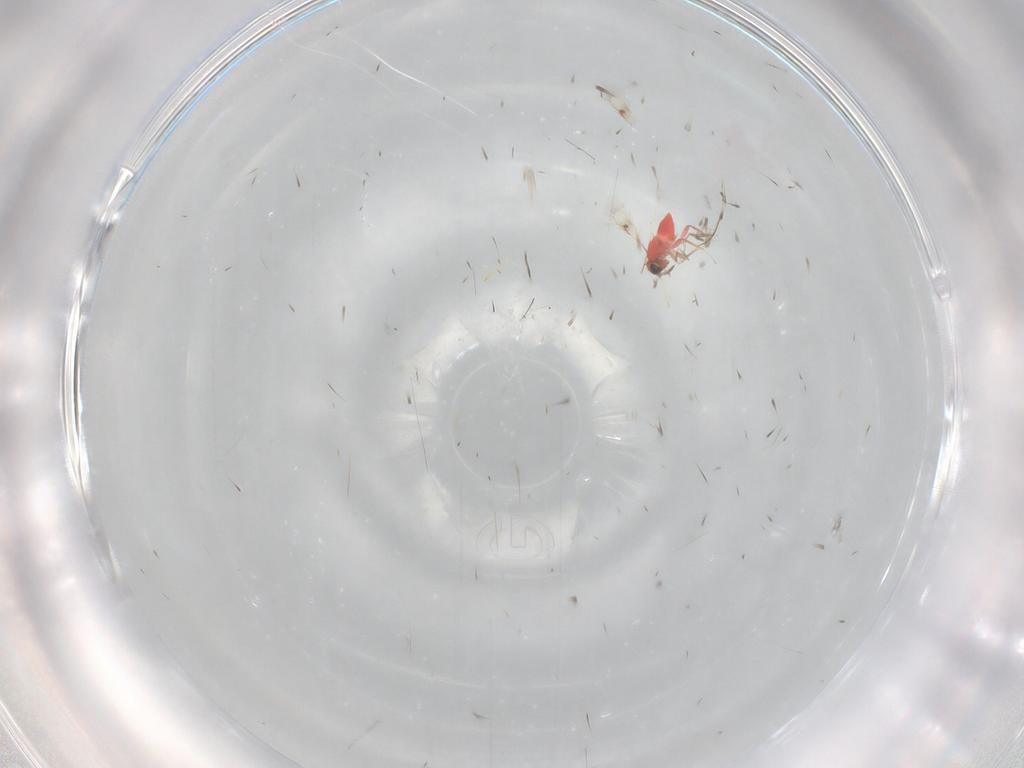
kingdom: Animalia
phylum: Arthropoda
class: Insecta
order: Hymenoptera
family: Trichogrammatidae
